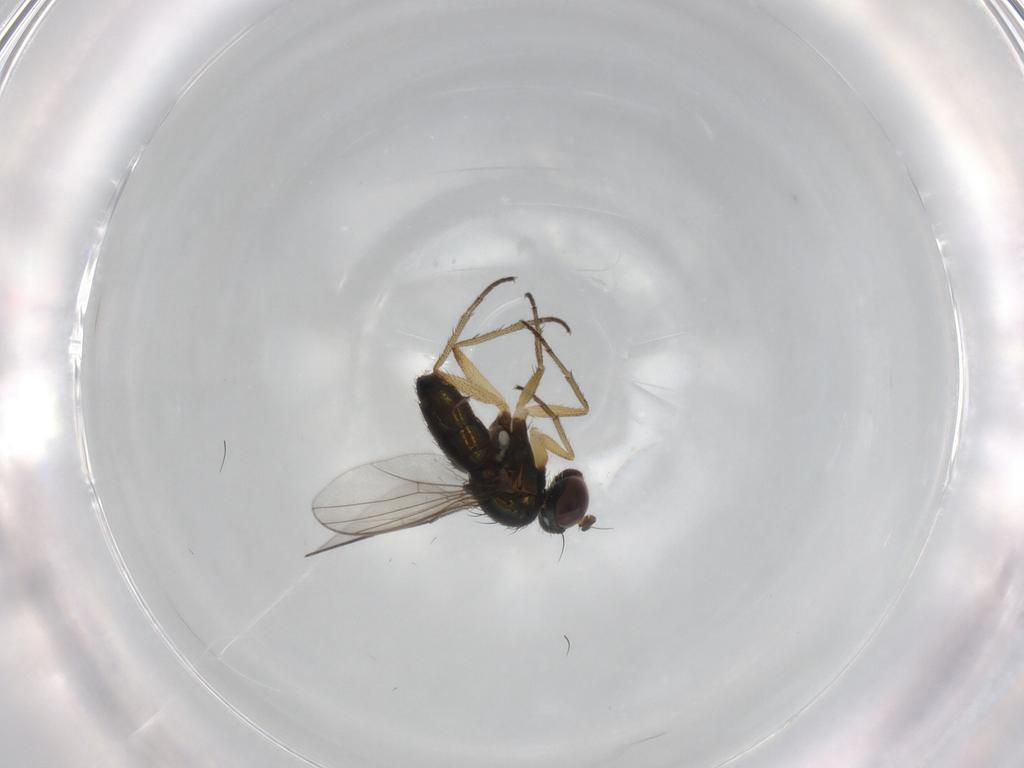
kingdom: Animalia
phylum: Arthropoda
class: Insecta
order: Diptera
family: Dolichopodidae
